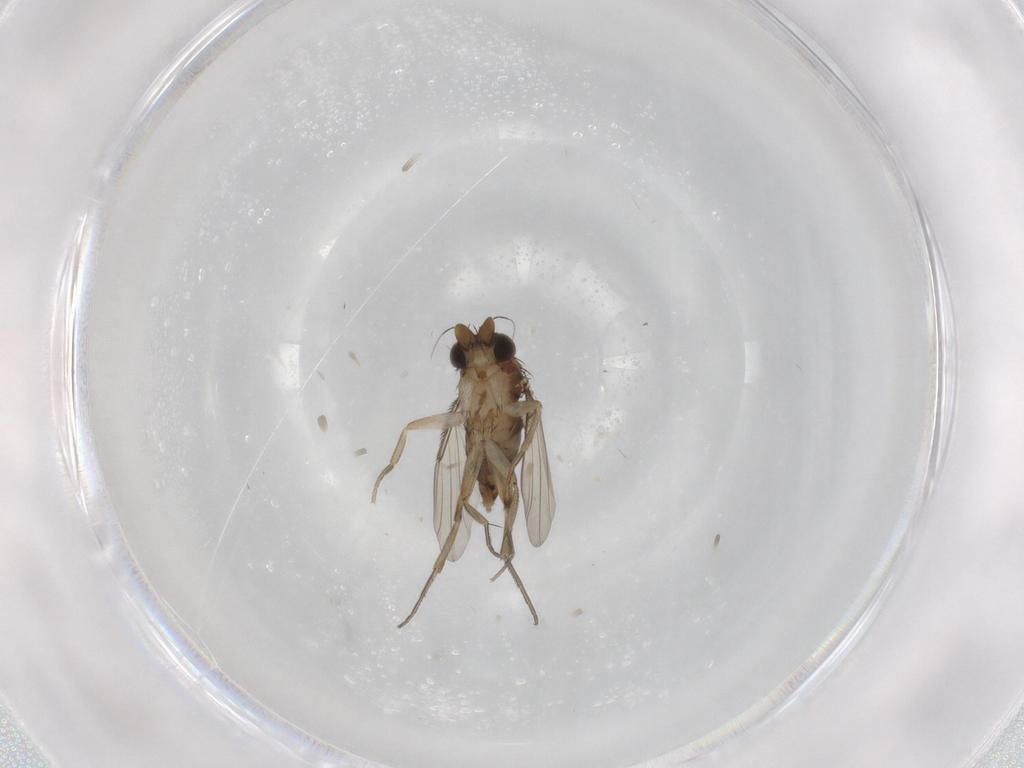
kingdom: Animalia
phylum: Arthropoda
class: Insecta
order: Diptera
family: Phoridae
